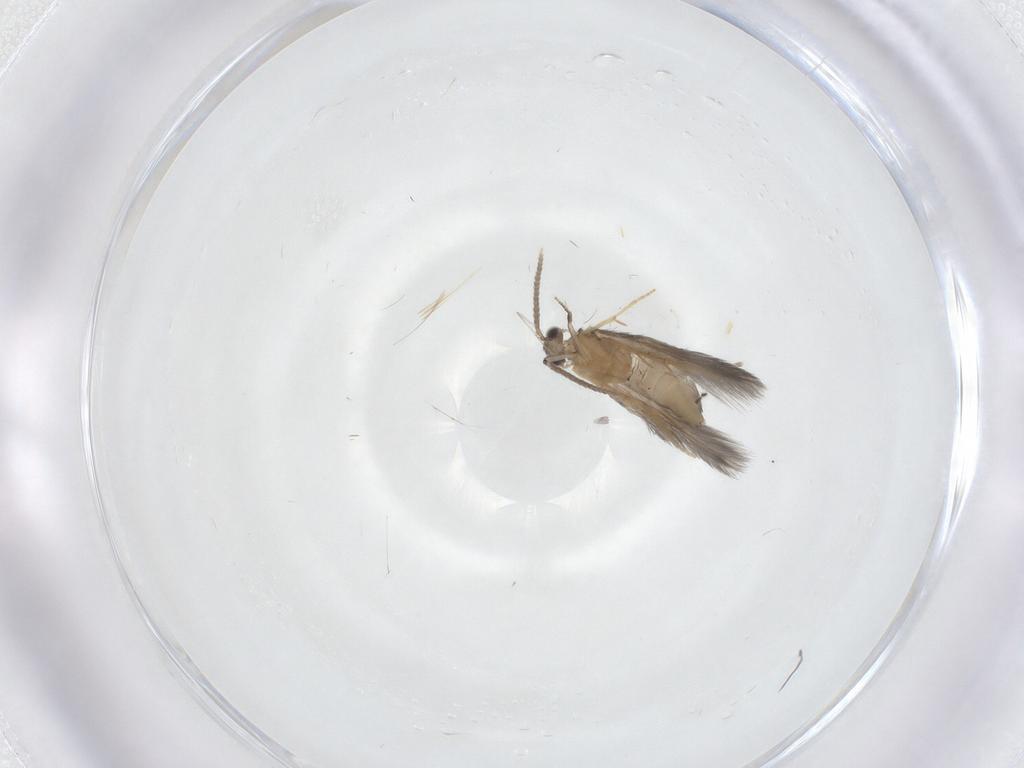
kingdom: Animalia
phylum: Arthropoda
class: Insecta
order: Trichoptera
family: Hydroptilidae
